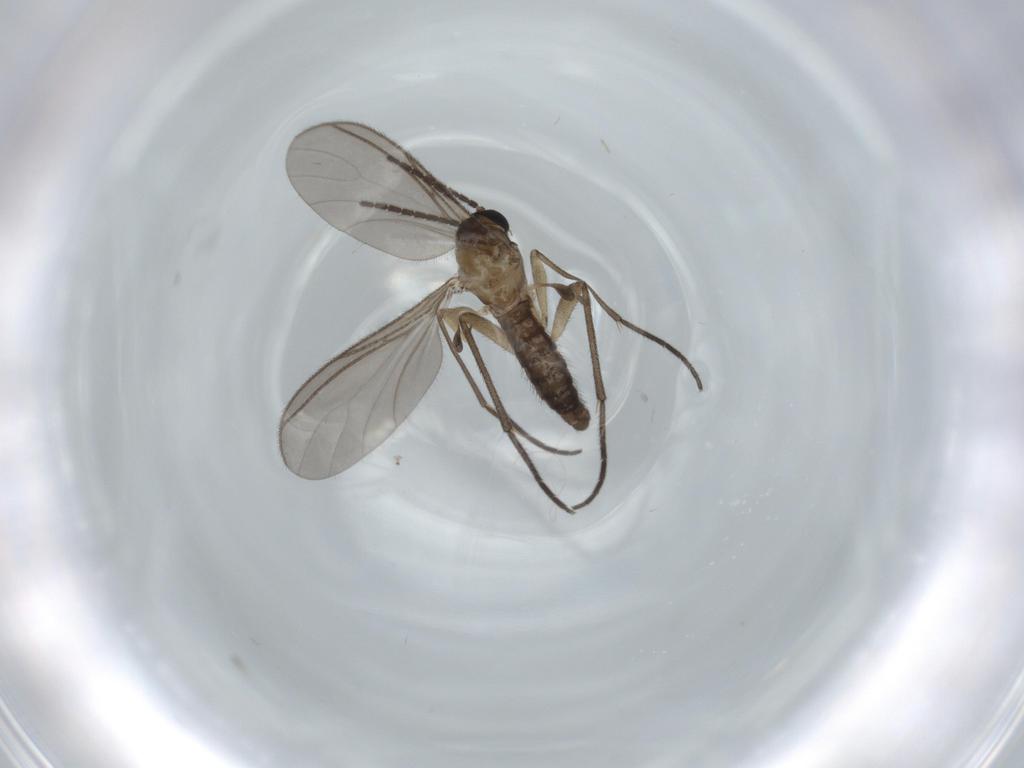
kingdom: Animalia
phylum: Arthropoda
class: Insecta
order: Diptera
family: Sciaridae
